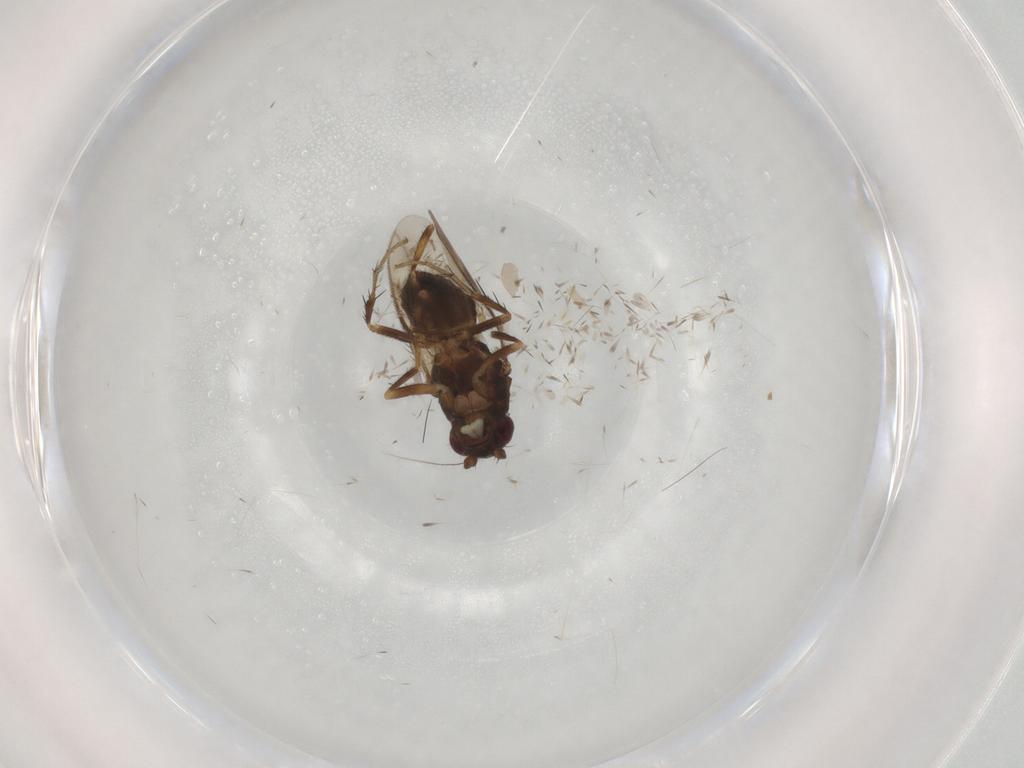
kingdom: Animalia
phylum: Arthropoda
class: Insecta
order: Diptera
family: Sphaeroceridae
